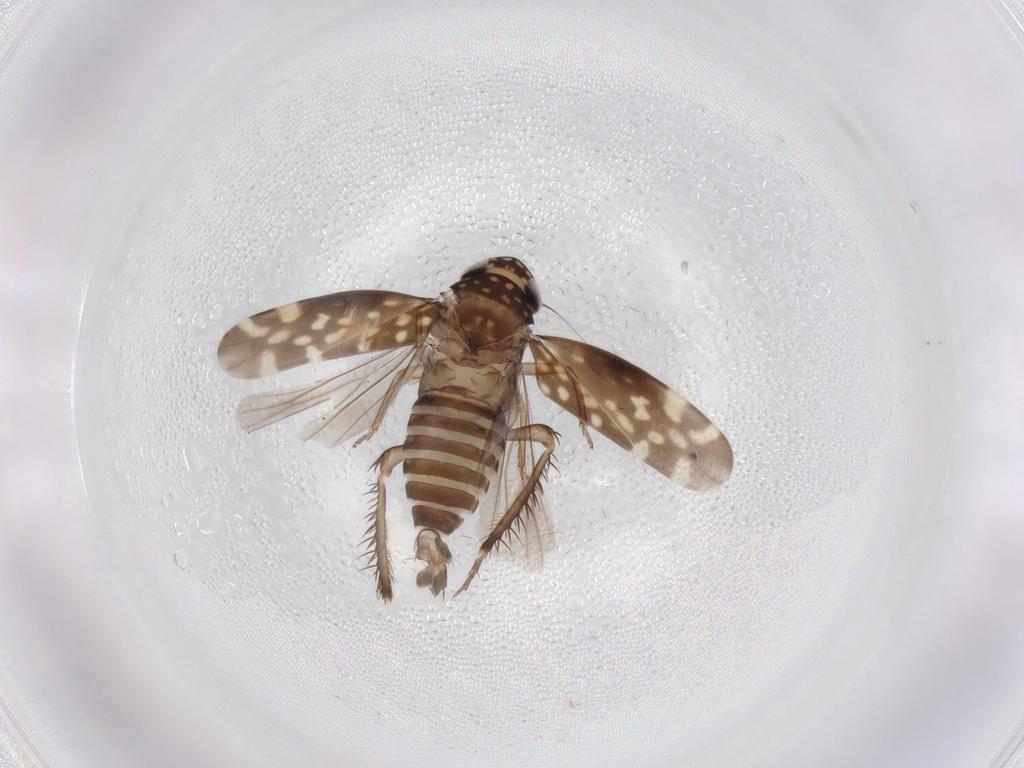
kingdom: Animalia
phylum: Arthropoda
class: Insecta
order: Hemiptera
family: Cicadellidae
